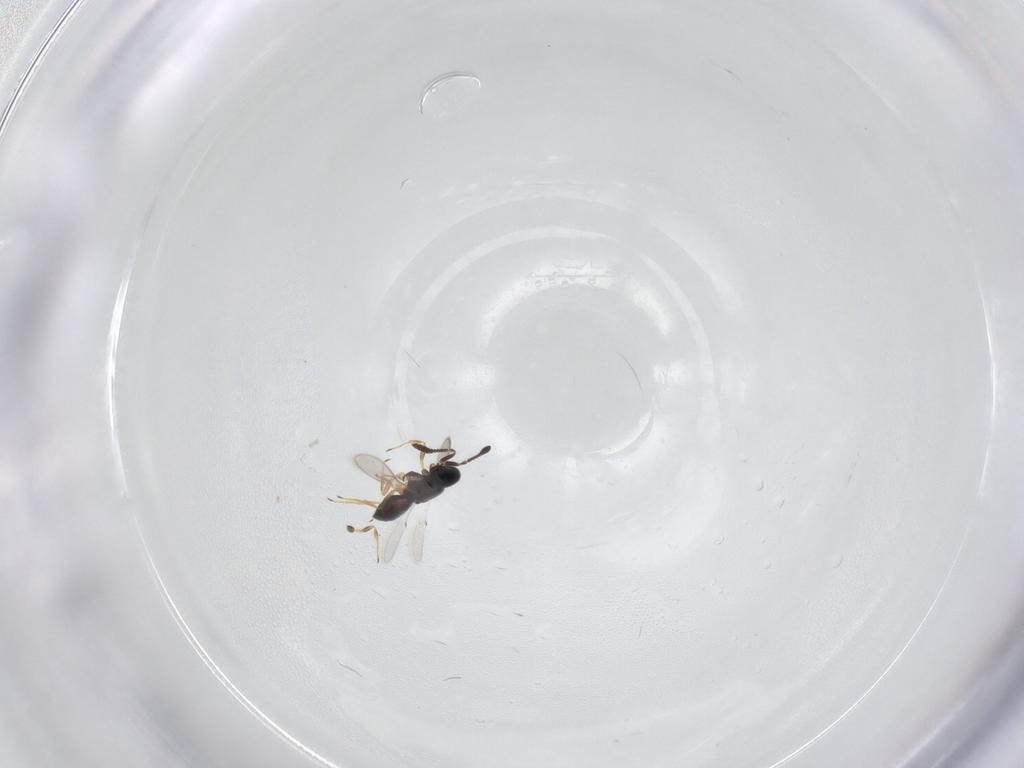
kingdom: Animalia
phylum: Arthropoda
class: Insecta
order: Hymenoptera
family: Scelionidae
